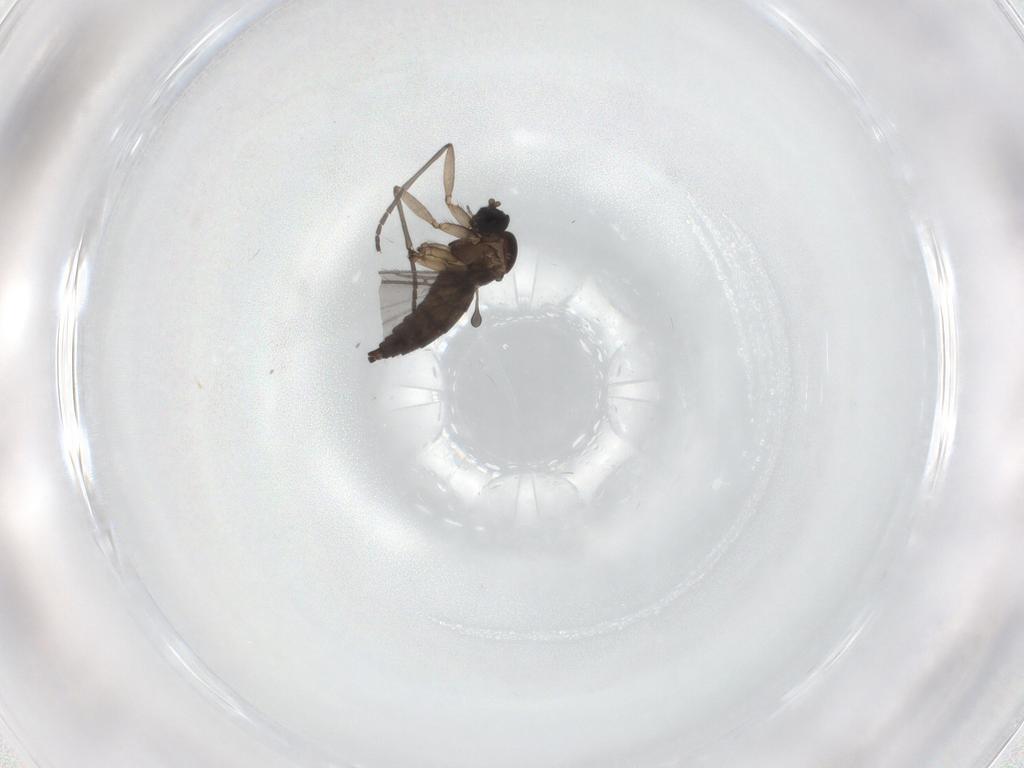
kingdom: Animalia
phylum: Arthropoda
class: Insecta
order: Diptera
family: Sciaridae
